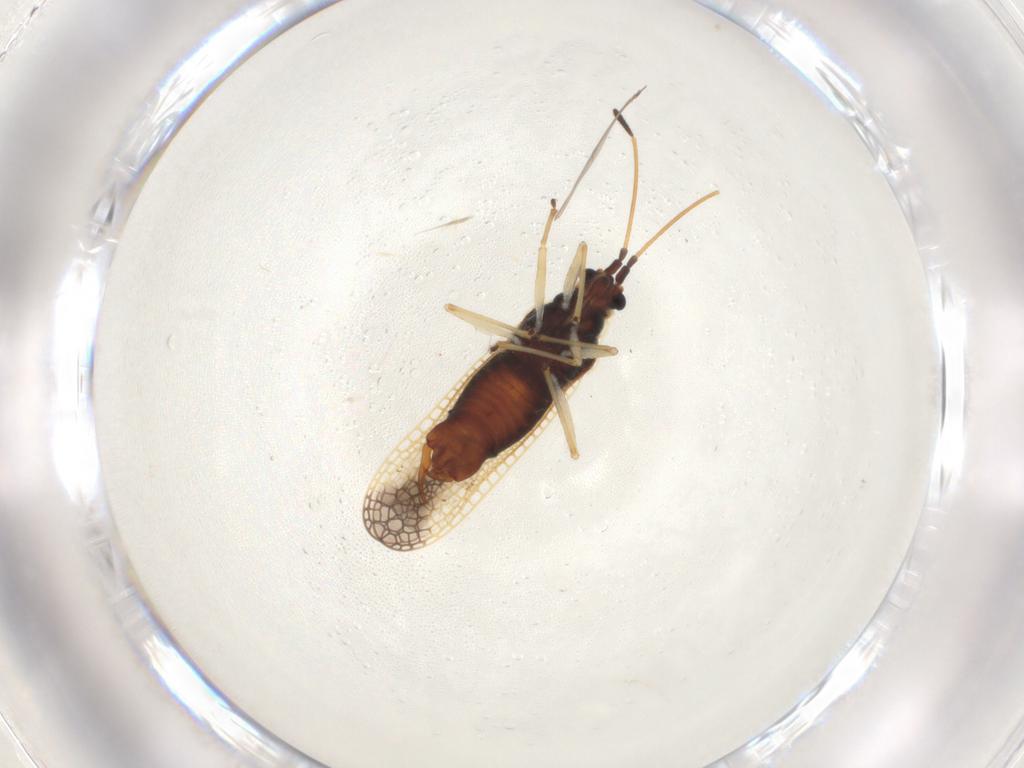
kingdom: Animalia
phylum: Arthropoda
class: Insecta
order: Hemiptera
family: Tingidae
